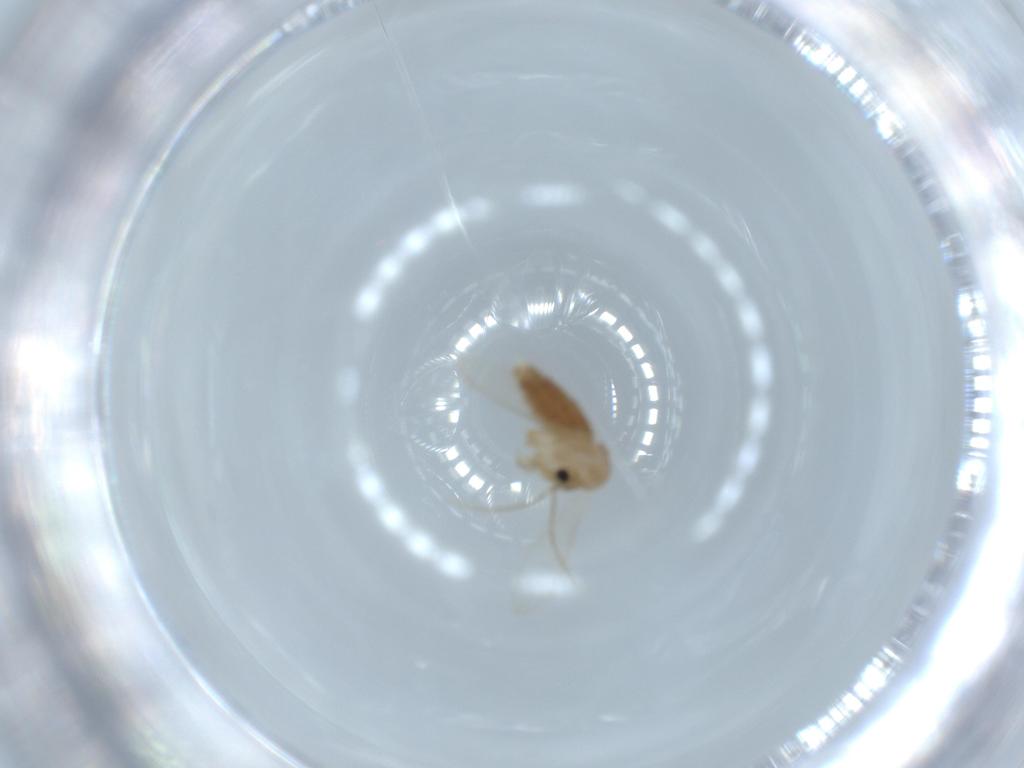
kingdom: Animalia
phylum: Arthropoda
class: Insecta
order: Diptera
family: Psychodidae
